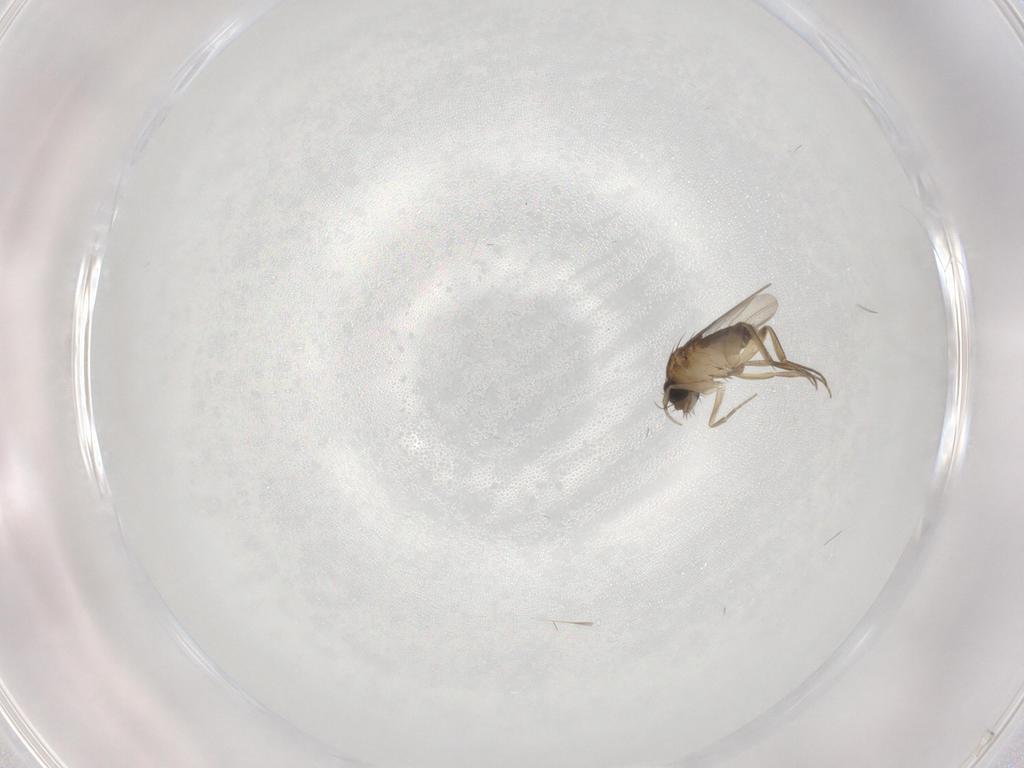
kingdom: Animalia
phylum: Arthropoda
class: Insecta
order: Diptera
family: Phoridae
